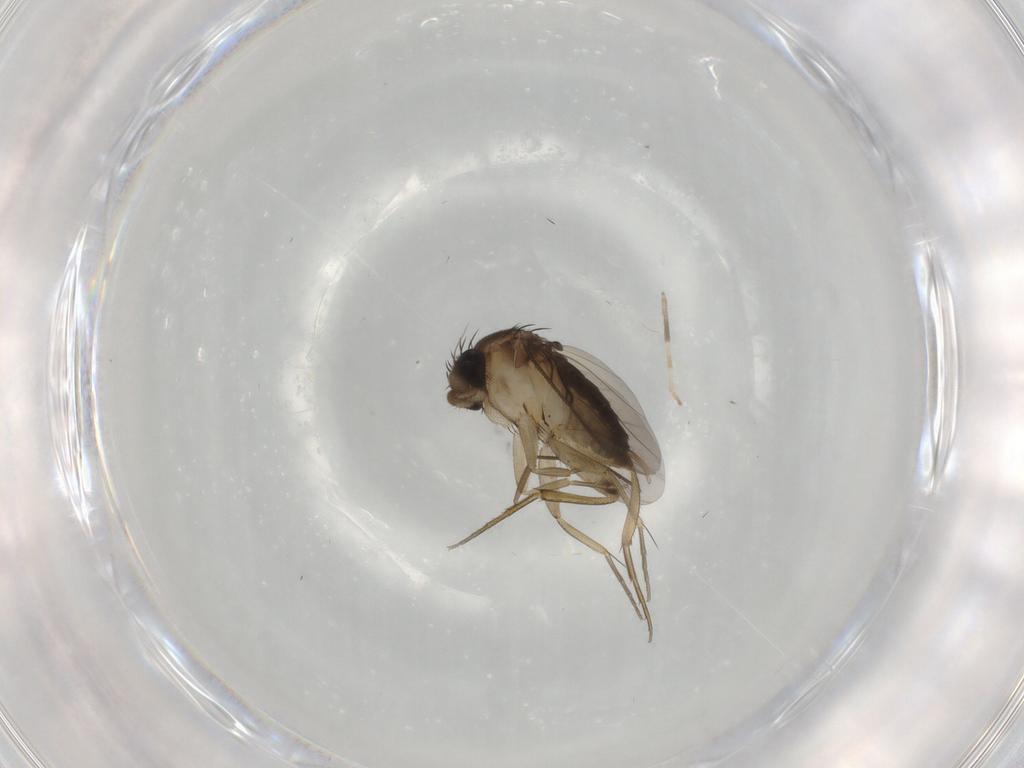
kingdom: Animalia
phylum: Arthropoda
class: Insecta
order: Diptera
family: Phoridae
